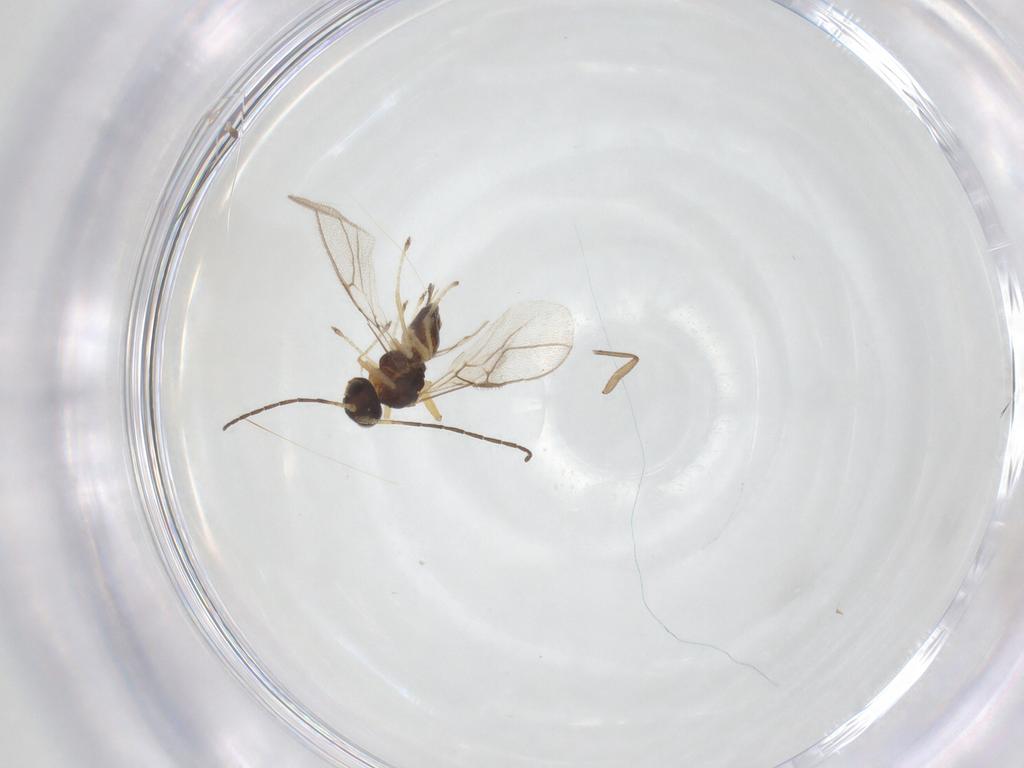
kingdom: Animalia
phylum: Arthropoda
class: Insecta
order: Hymenoptera
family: Braconidae
